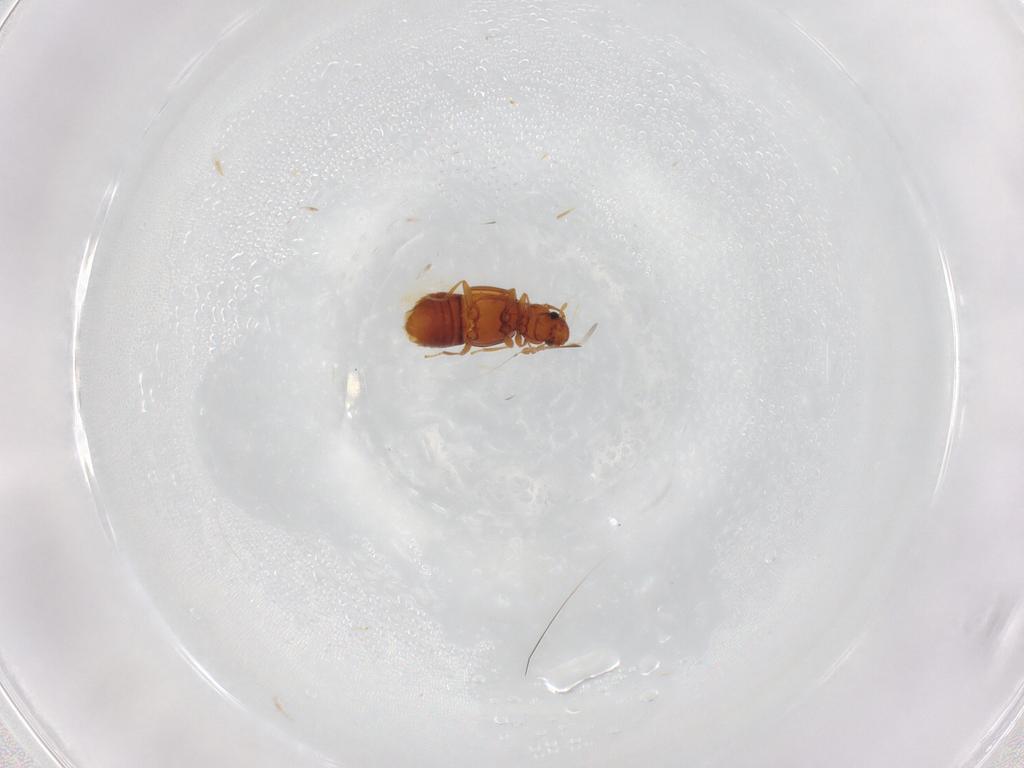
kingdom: Animalia
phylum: Arthropoda
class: Insecta
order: Coleoptera
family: Staphylinidae
